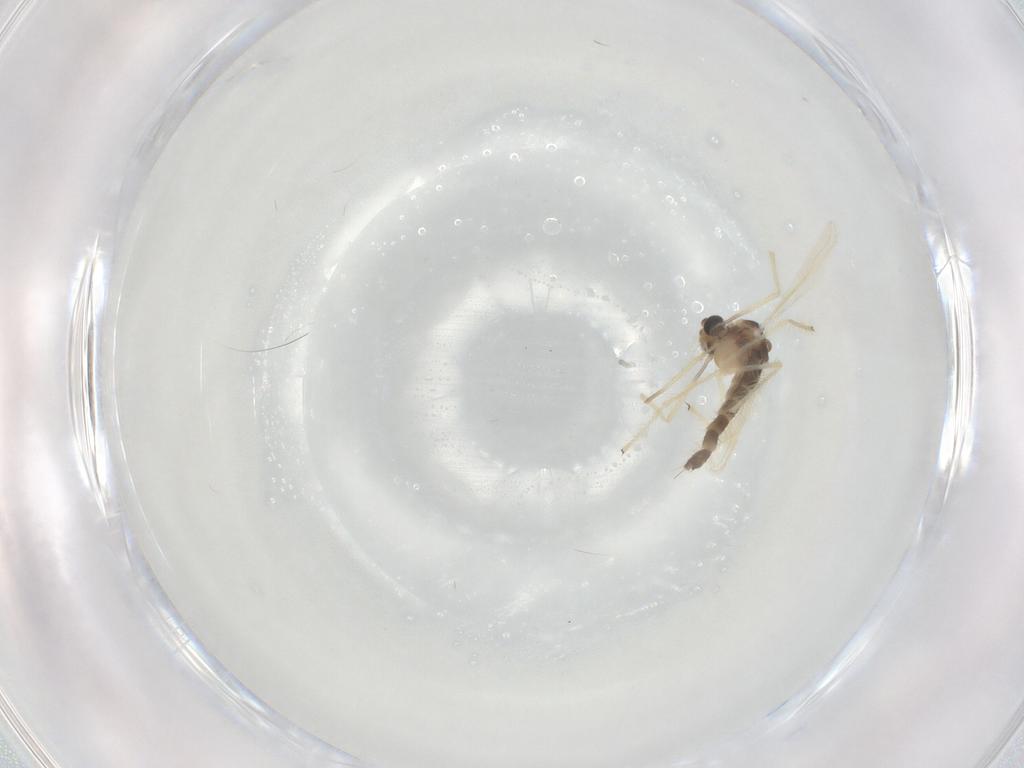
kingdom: Animalia
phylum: Arthropoda
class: Insecta
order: Diptera
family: Chironomidae
